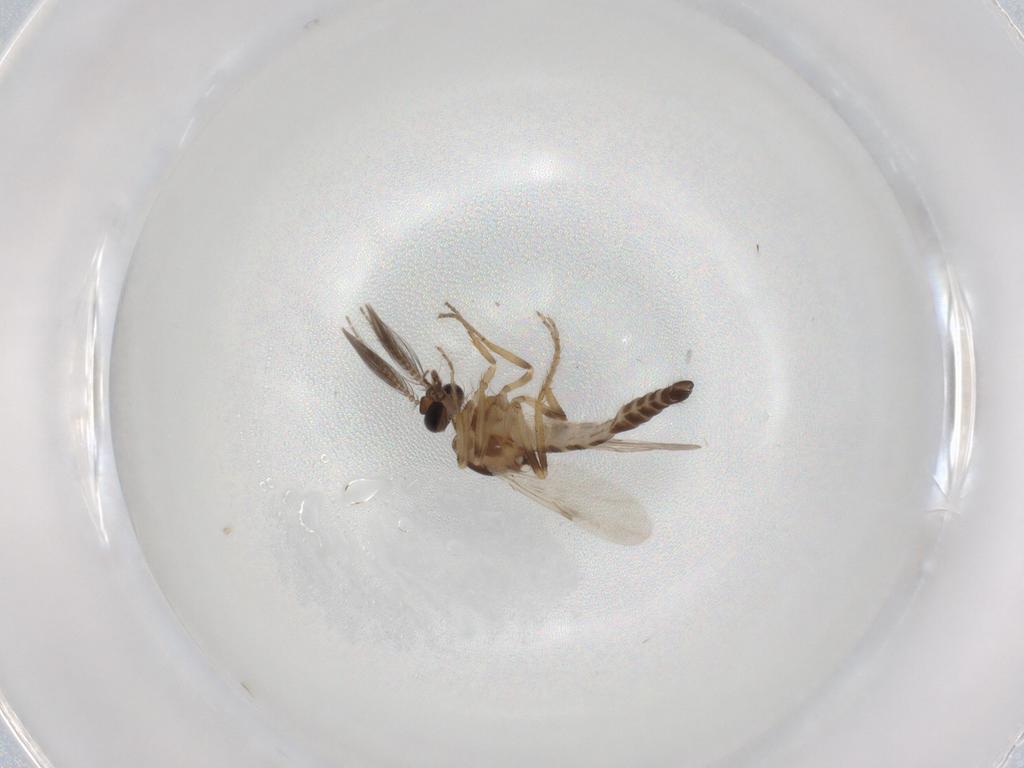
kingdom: Animalia
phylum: Arthropoda
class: Insecta
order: Diptera
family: Ceratopogonidae
